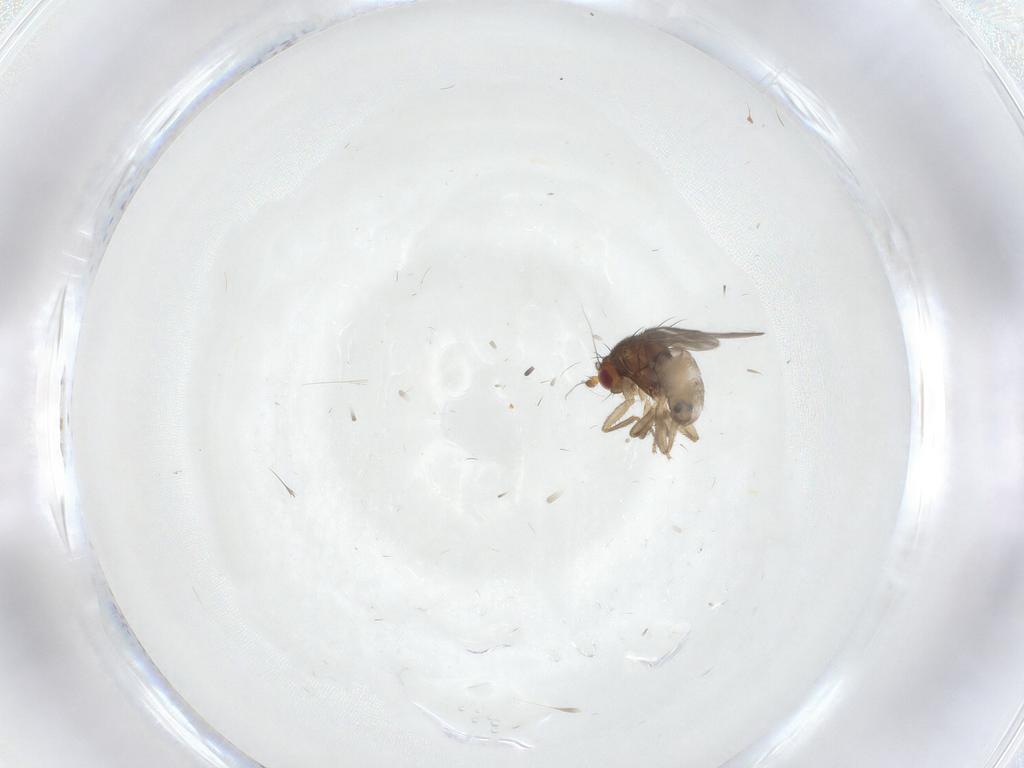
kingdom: Animalia
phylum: Arthropoda
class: Insecta
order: Diptera
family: Sphaeroceridae
